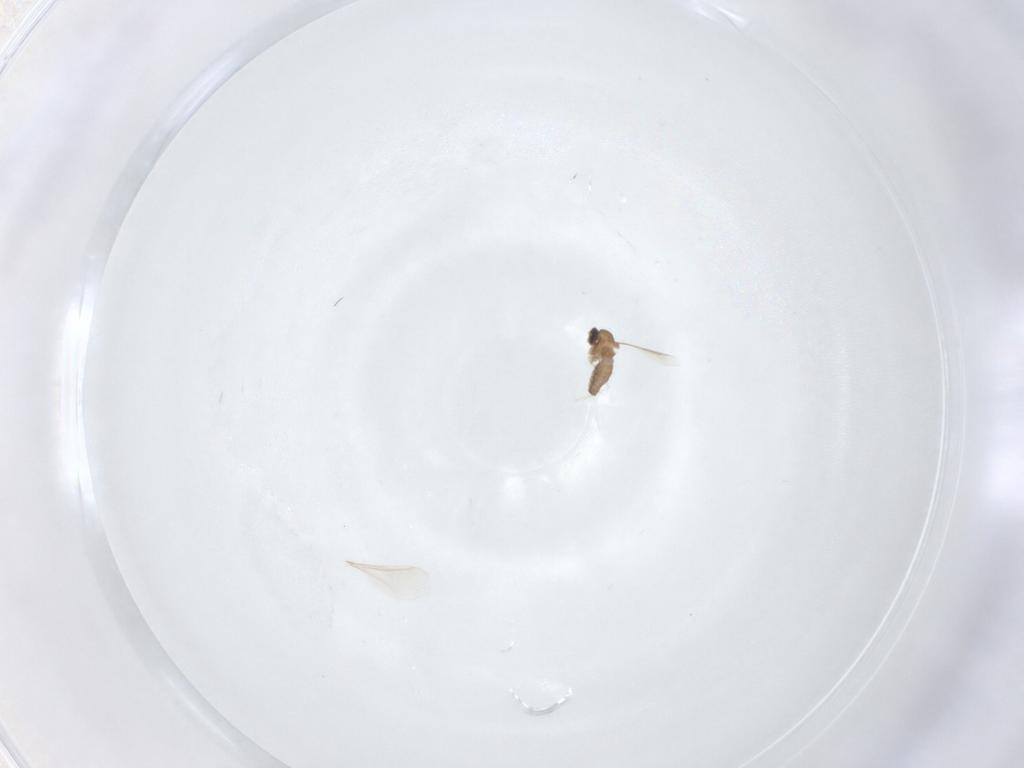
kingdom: Animalia
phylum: Arthropoda
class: Insecta
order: Diptera
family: Cecidomyiidae
